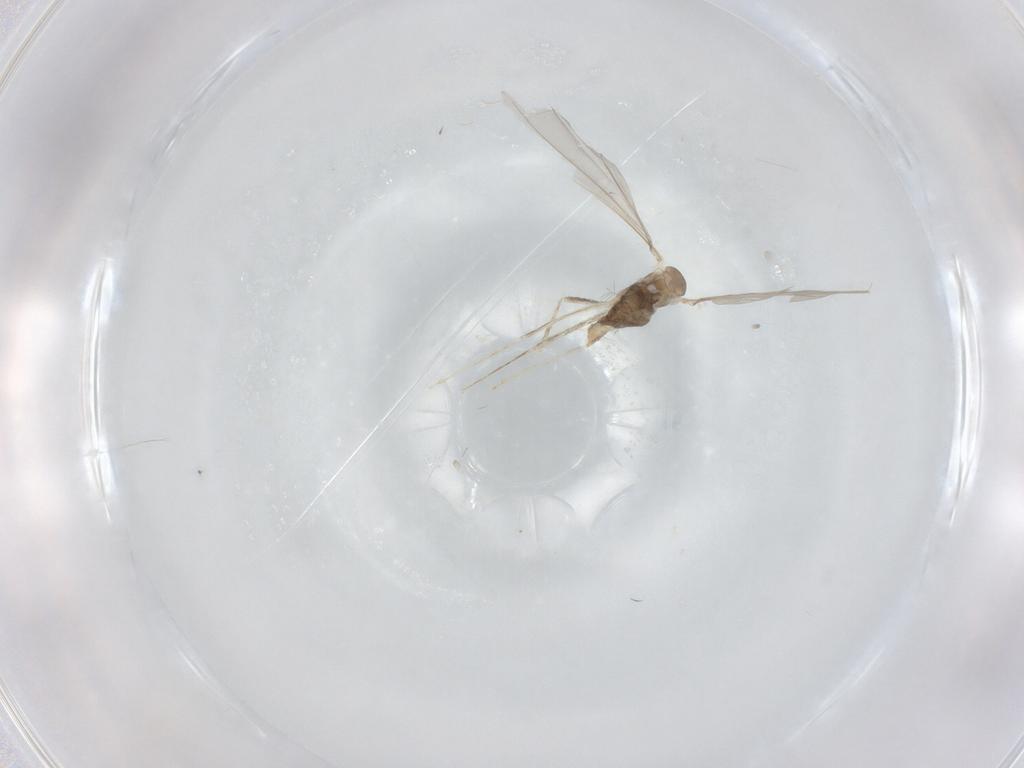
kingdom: Animalia
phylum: Arthropoda
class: Insecta
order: Diptera
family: Cecidomyiidae
